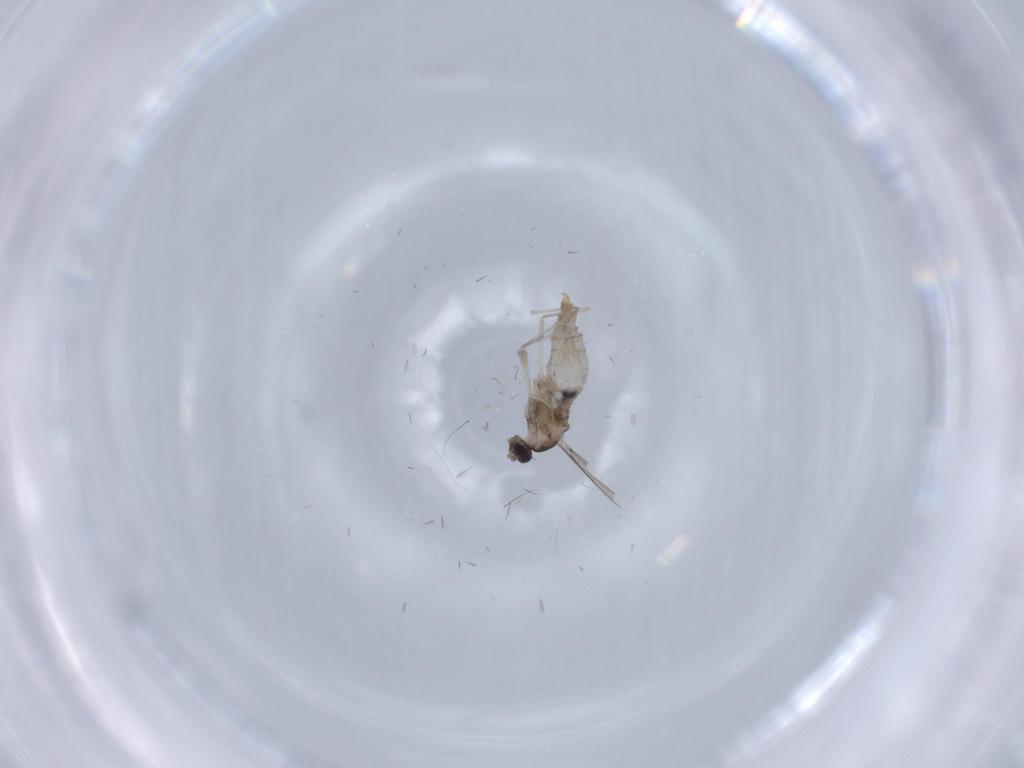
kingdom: Animalia
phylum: Arthropoda
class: Insecta
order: Diptera
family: Cecidomyiidae
